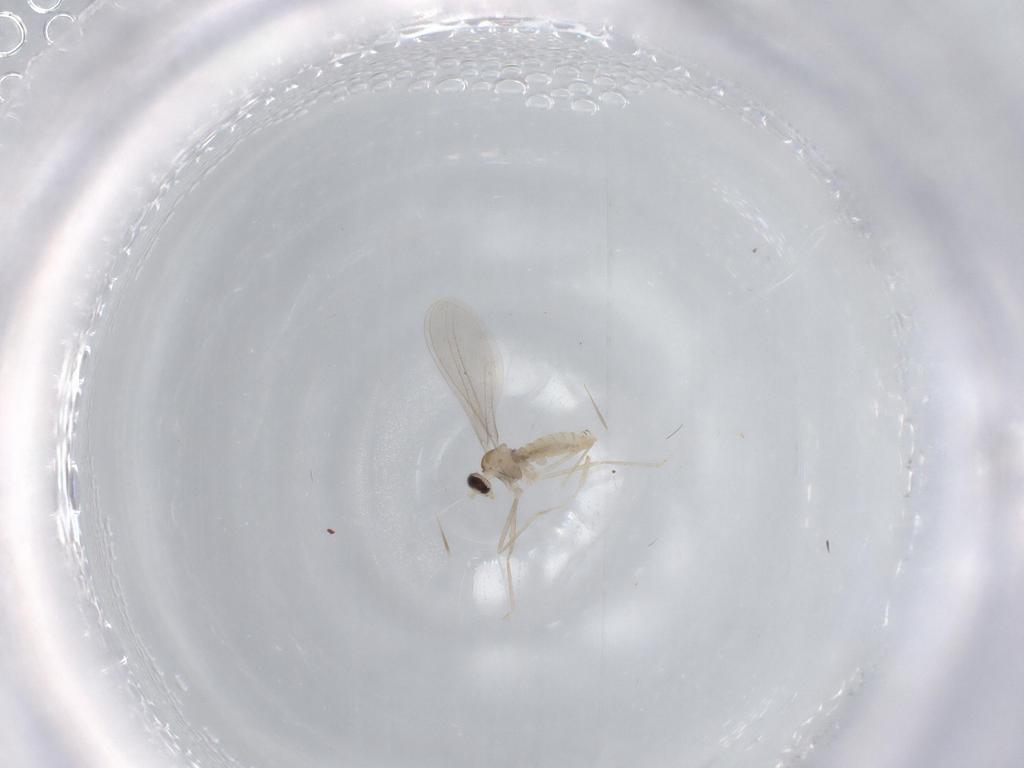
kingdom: Animalia
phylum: Arthropoda
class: Insecta
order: Diptera
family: Cecidomyiidae
